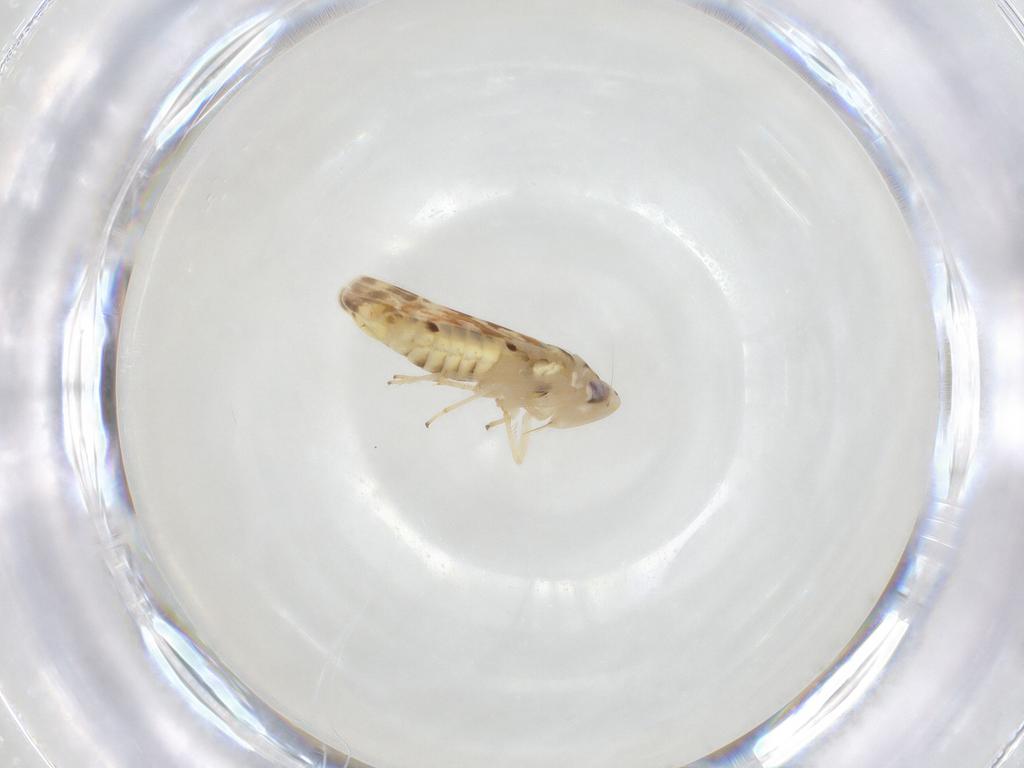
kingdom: Animalia
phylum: Arthropoda
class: Insecta
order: Hemiptera
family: Cicadellidae
